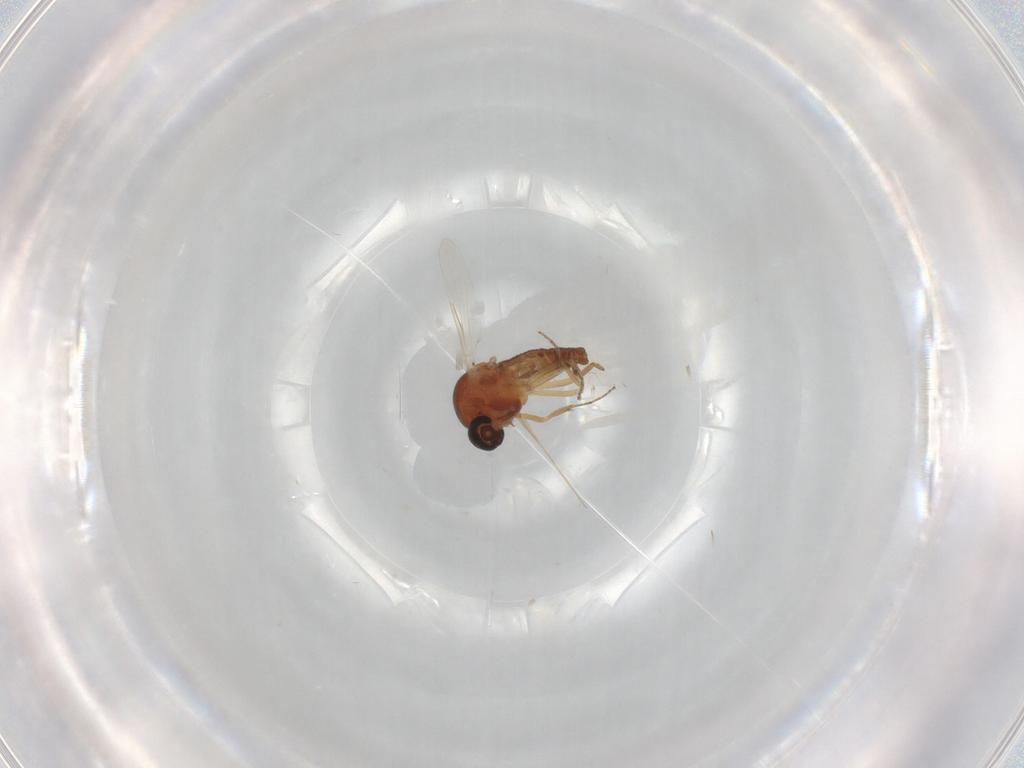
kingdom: Animalia
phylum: Arthropoda
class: Insecta
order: Diptera
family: Ceratopogonidae
